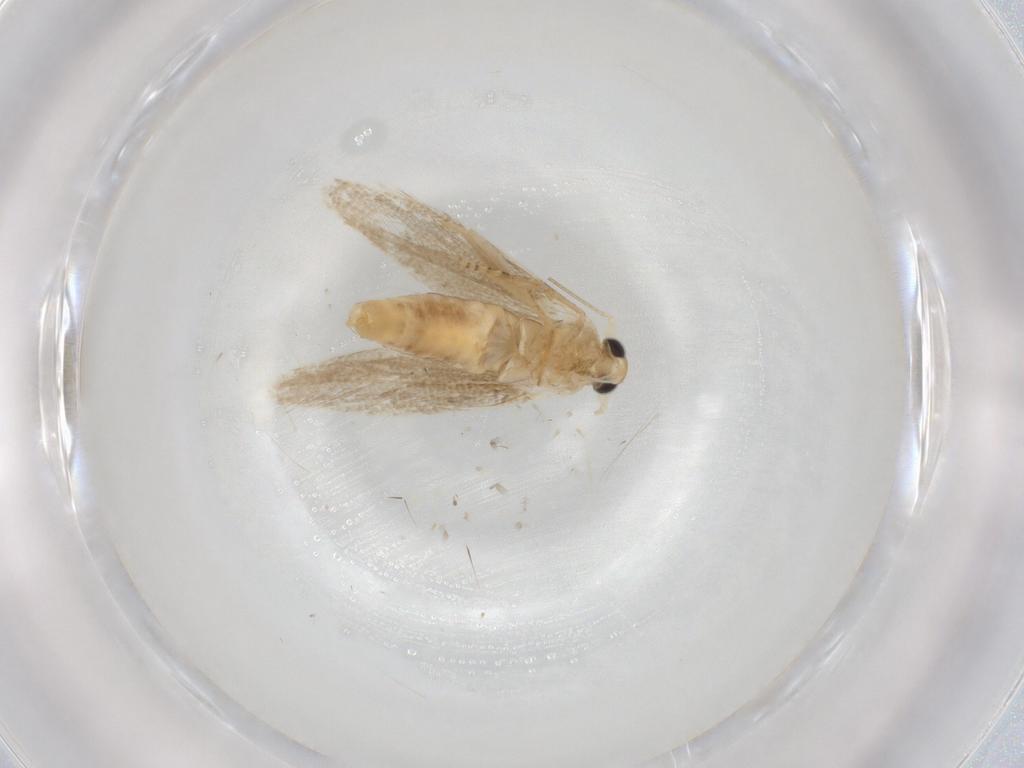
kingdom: Animalia
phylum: Arthropoda
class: Insecta
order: Lepidoptera
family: Bucculatricidae
